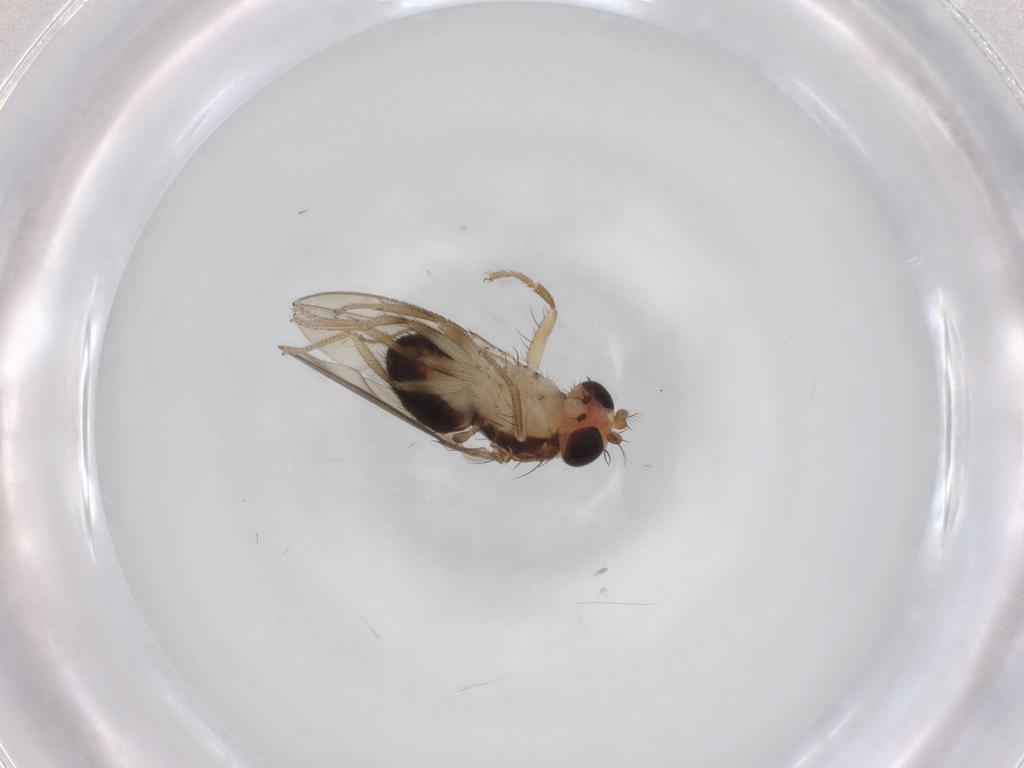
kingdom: Animalia
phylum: Arthropoda
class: Insecta
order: Diptera
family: Drosophilidae
